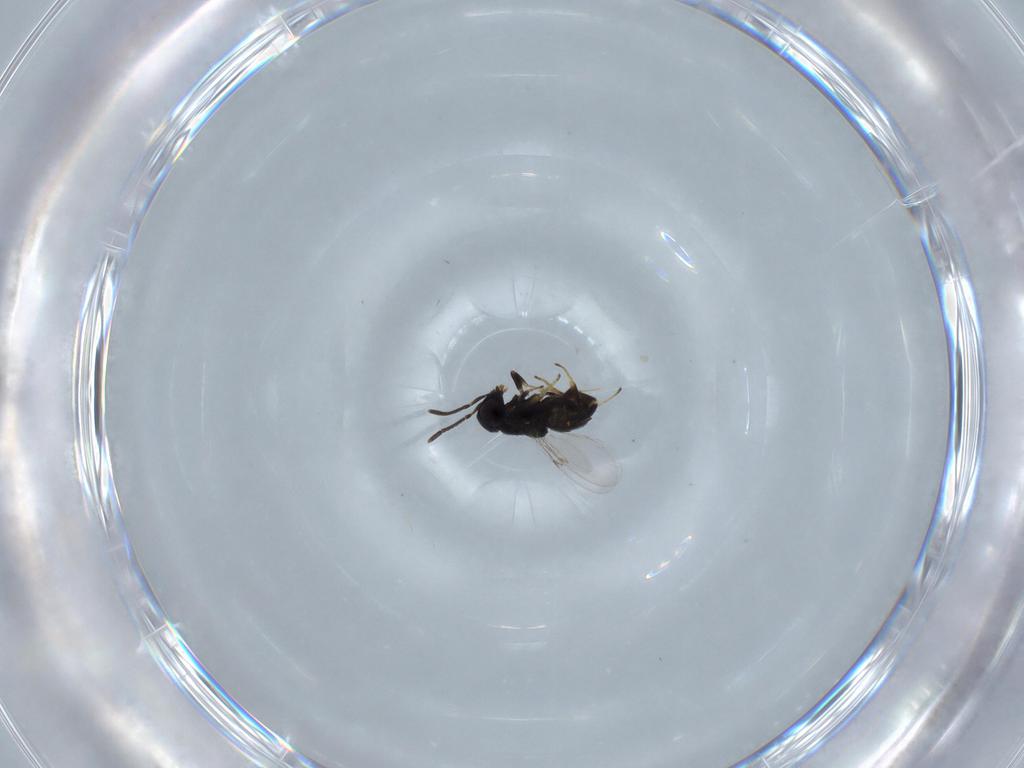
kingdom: Animalia
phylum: Arthropoda
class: Insecta
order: Hymenoptera
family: Encyrtidae
